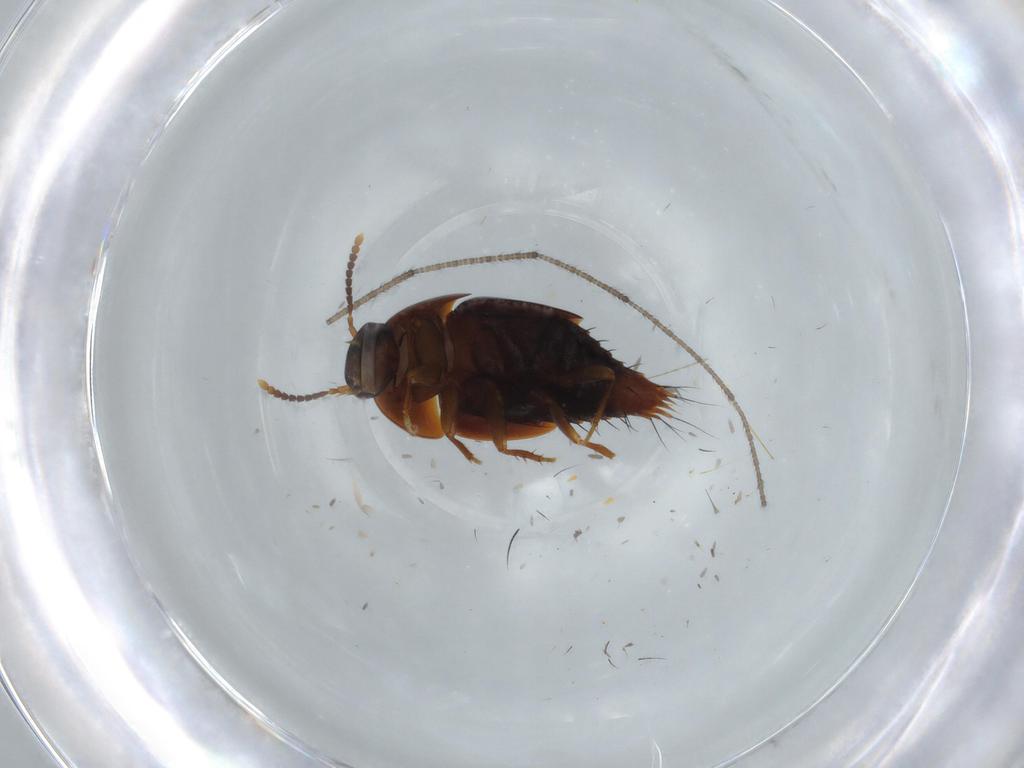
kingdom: Animalia
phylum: Arthropoda
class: Insecta
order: Coleoptera
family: Staphylinidae
